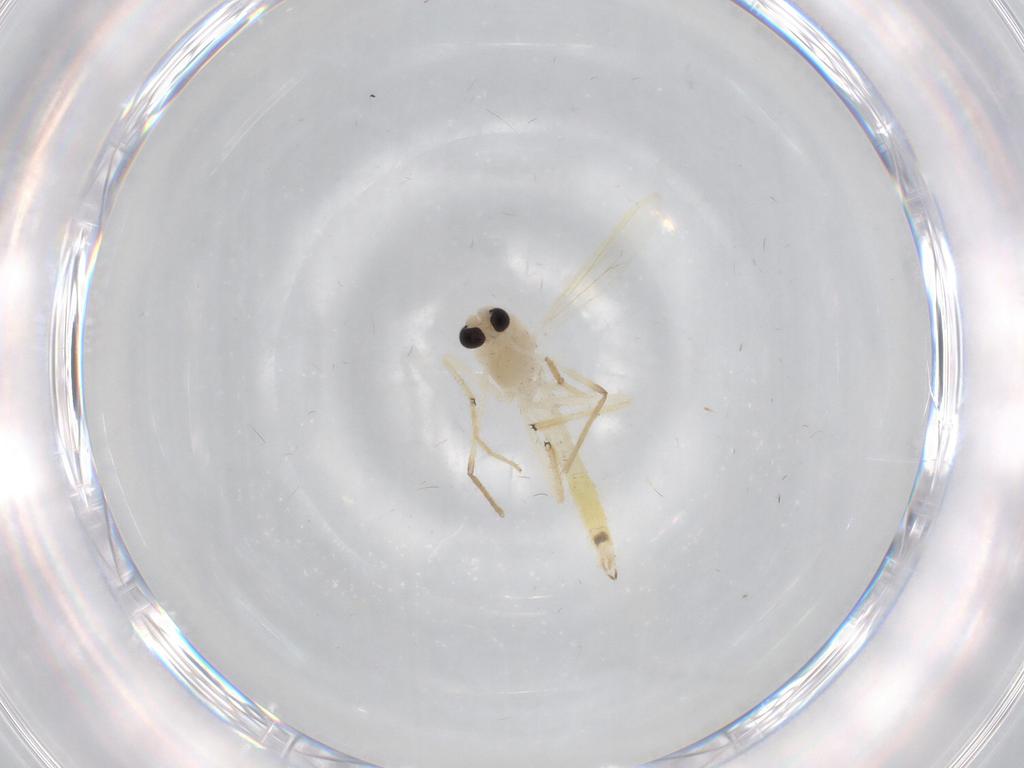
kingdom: Animalia
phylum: Arthropoda
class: Insecta
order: Diptera
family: Chironomidae
